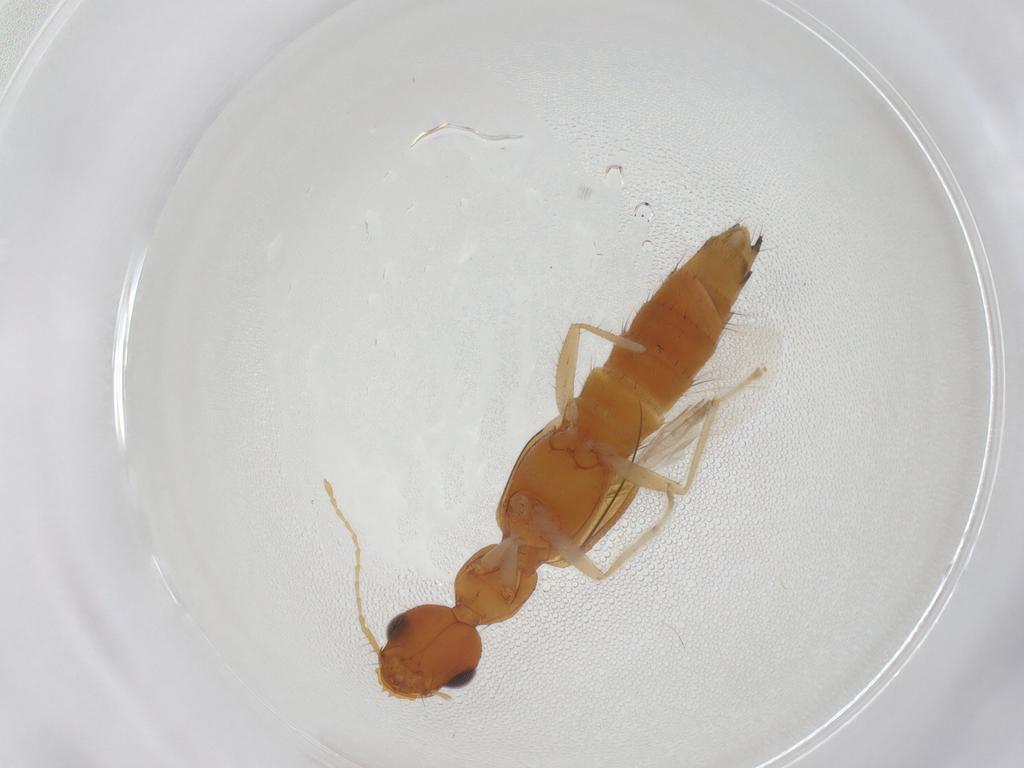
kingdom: Animalia
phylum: Arthropoda
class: Insecta
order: Coleoptera
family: Staphylinidae
